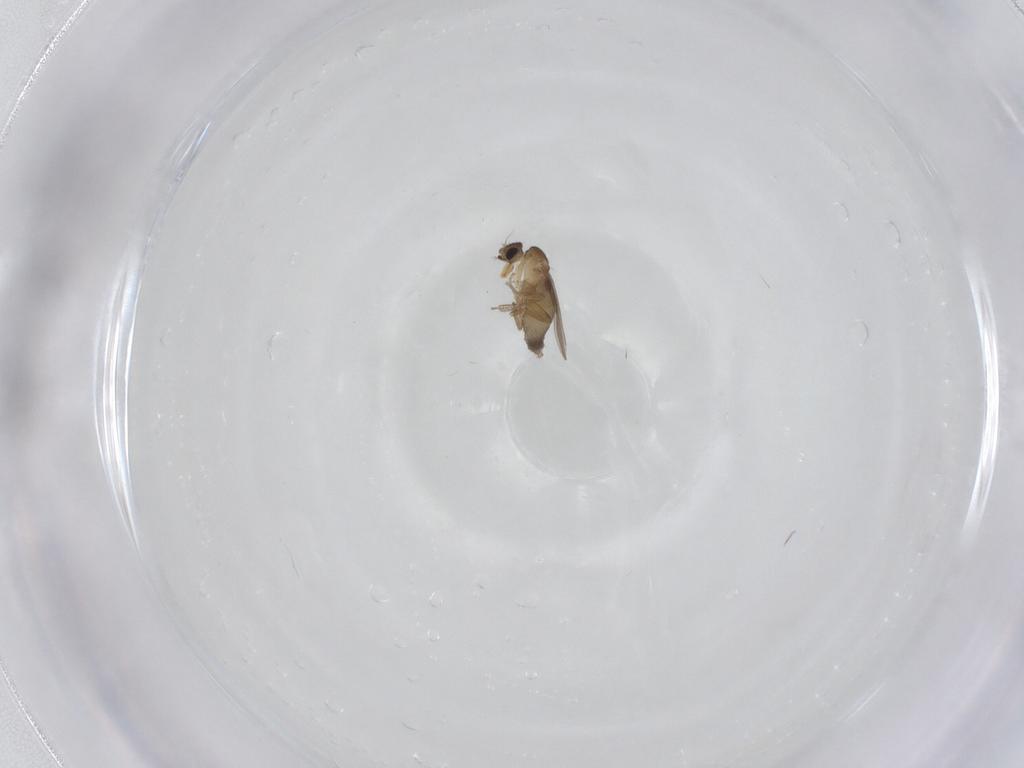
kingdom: Animalia
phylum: Arthropoda
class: Insecta
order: Diptera
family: Phoridae
